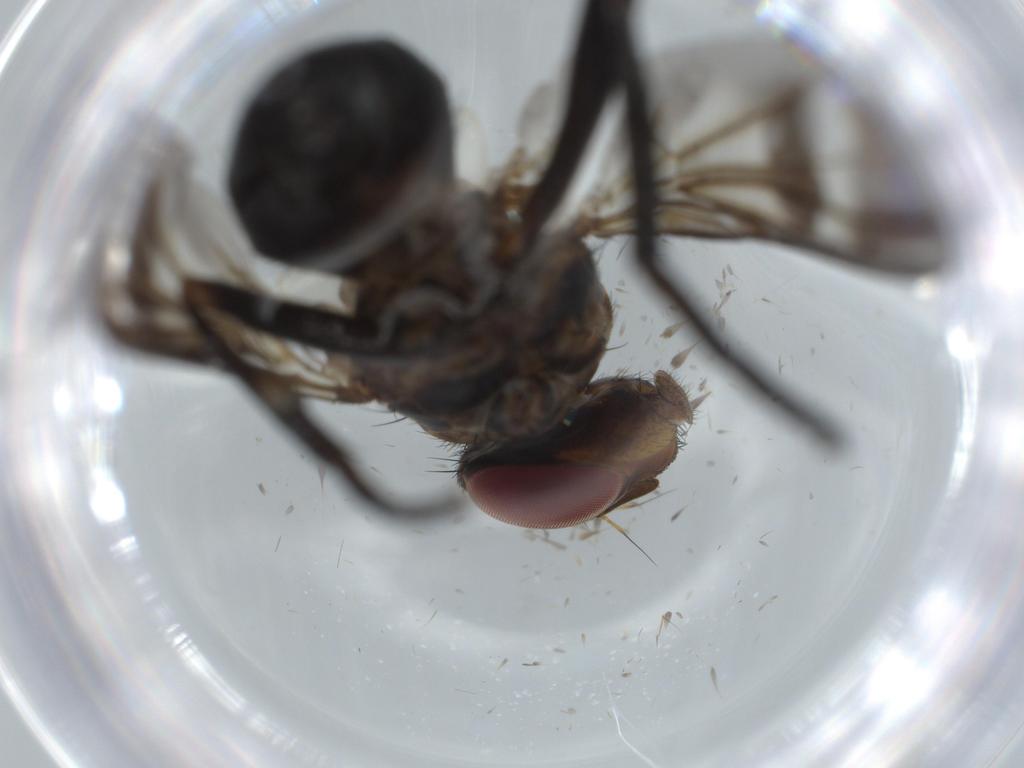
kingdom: Animalia
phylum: Arthropoda
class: Insecta
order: Diptera
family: Calliphoridae
